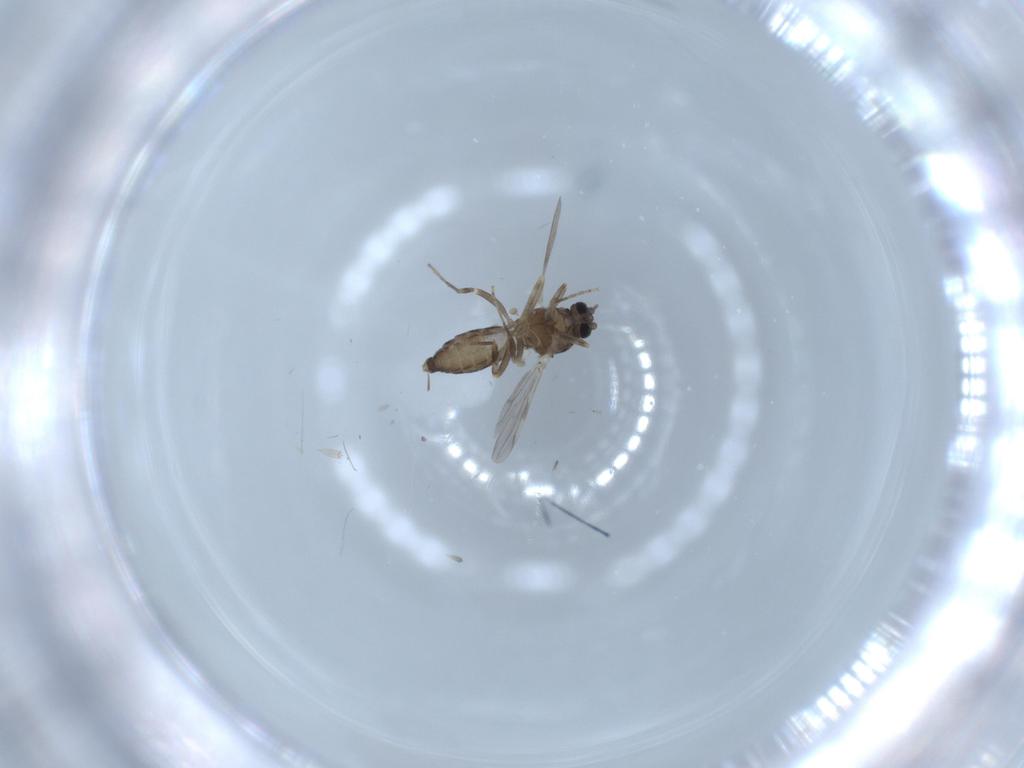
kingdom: Animalia
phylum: Arthropoda
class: Insecta
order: Diptera
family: Ceratopogonidae
